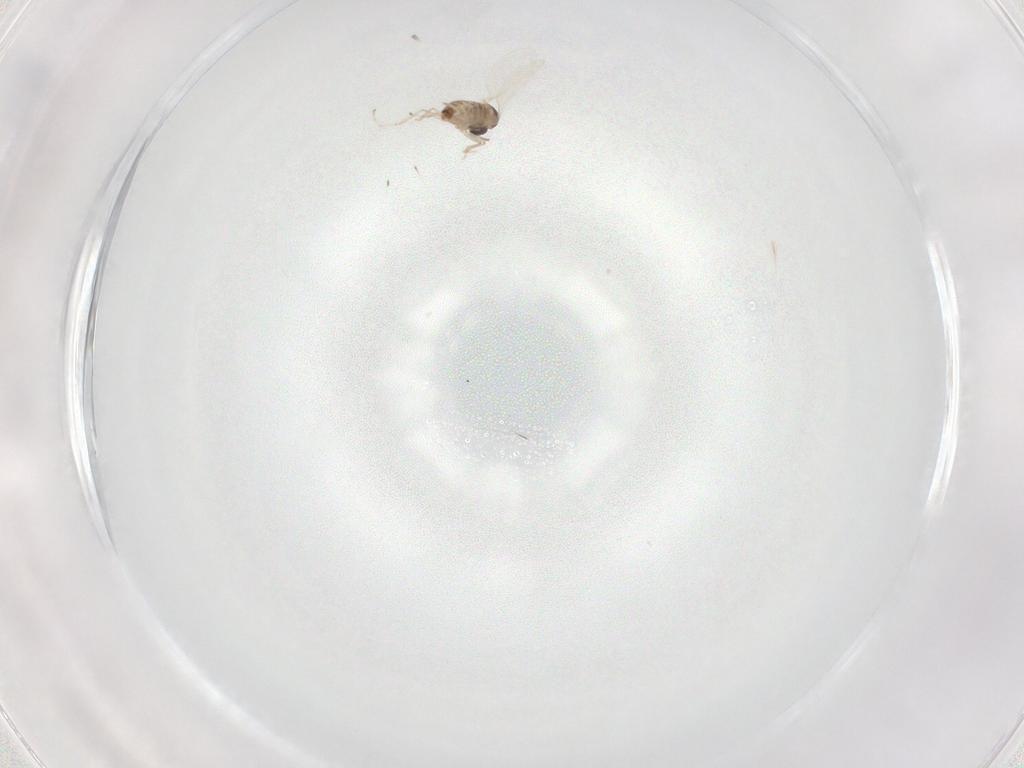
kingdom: Animalia
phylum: Arthropoda
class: Insecta
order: Diptera
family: Cecidomyiidae
